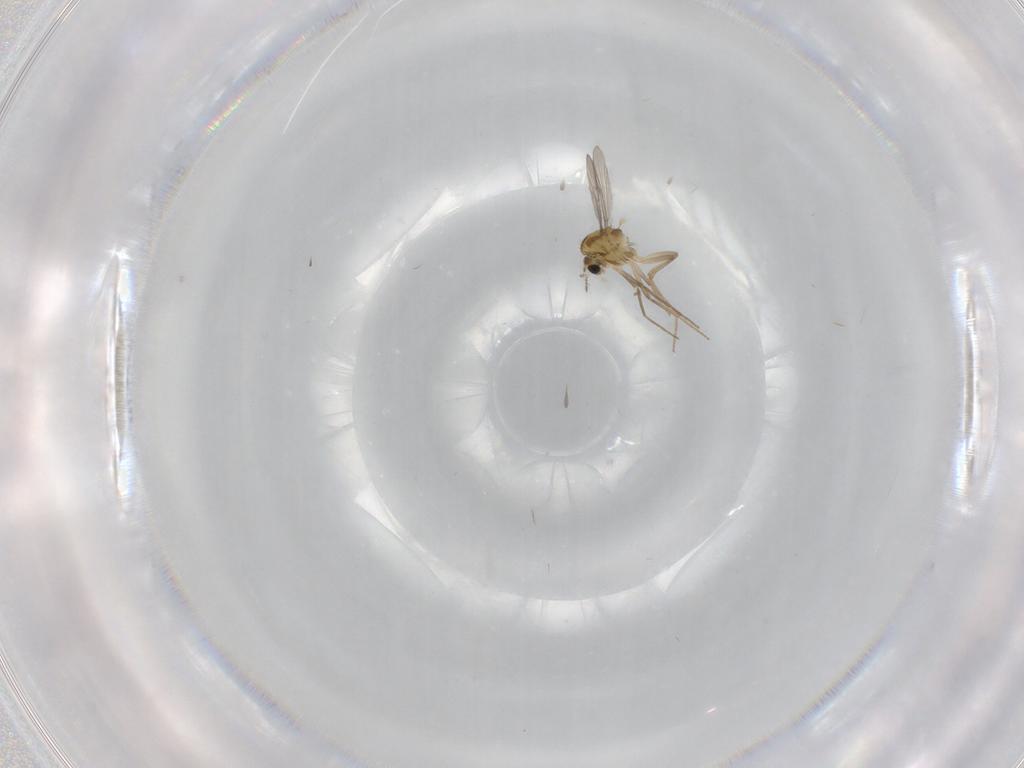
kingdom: Animalia
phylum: Arthropoda
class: Insecta
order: Diptera
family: Chironomidae
